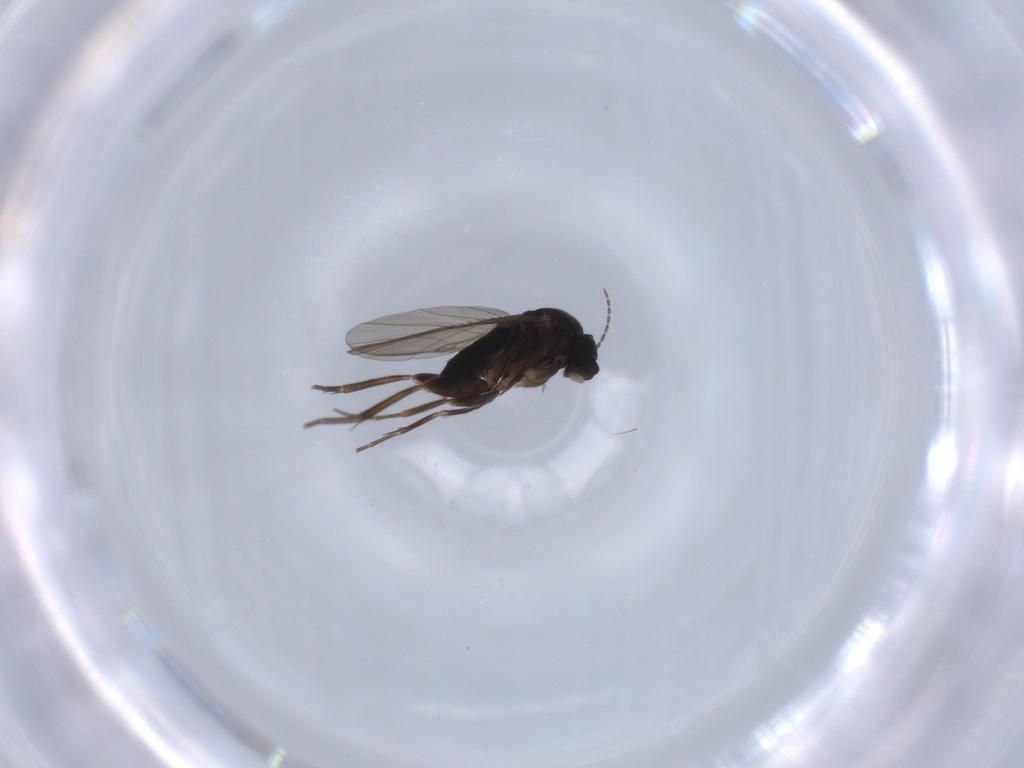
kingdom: Animalia
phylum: Arthropoda
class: Insecta
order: Diptera
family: Phoridae
